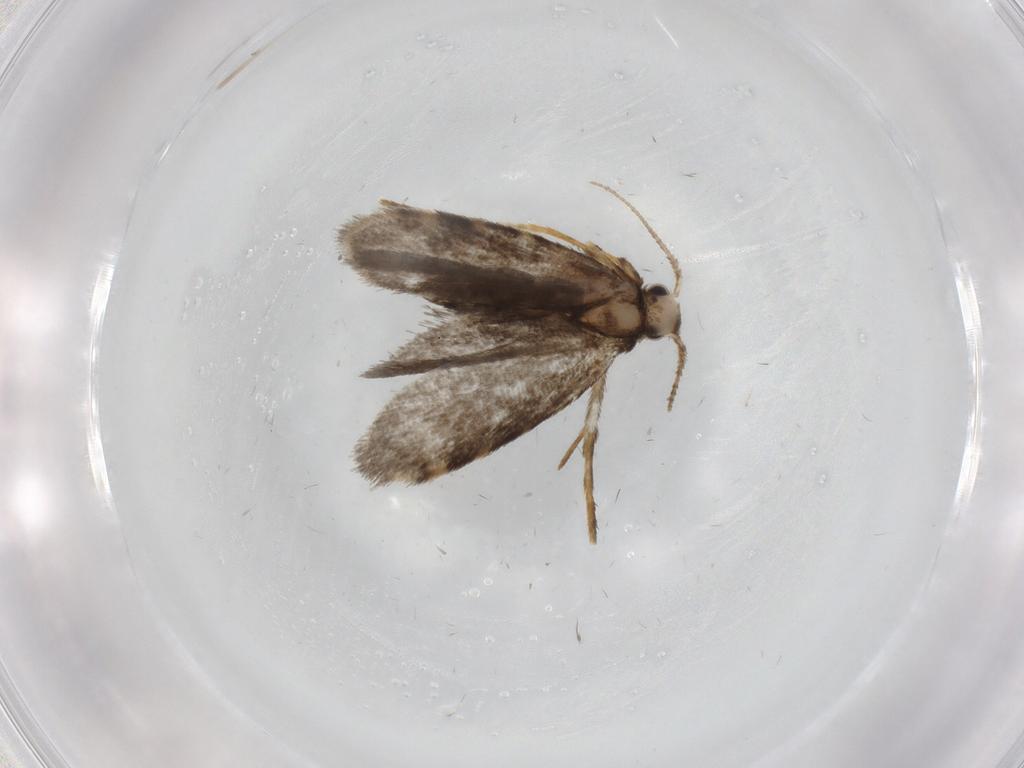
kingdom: Animalia
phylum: Arthropoda
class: Insecta
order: Lepidoptera
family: Psychidae
